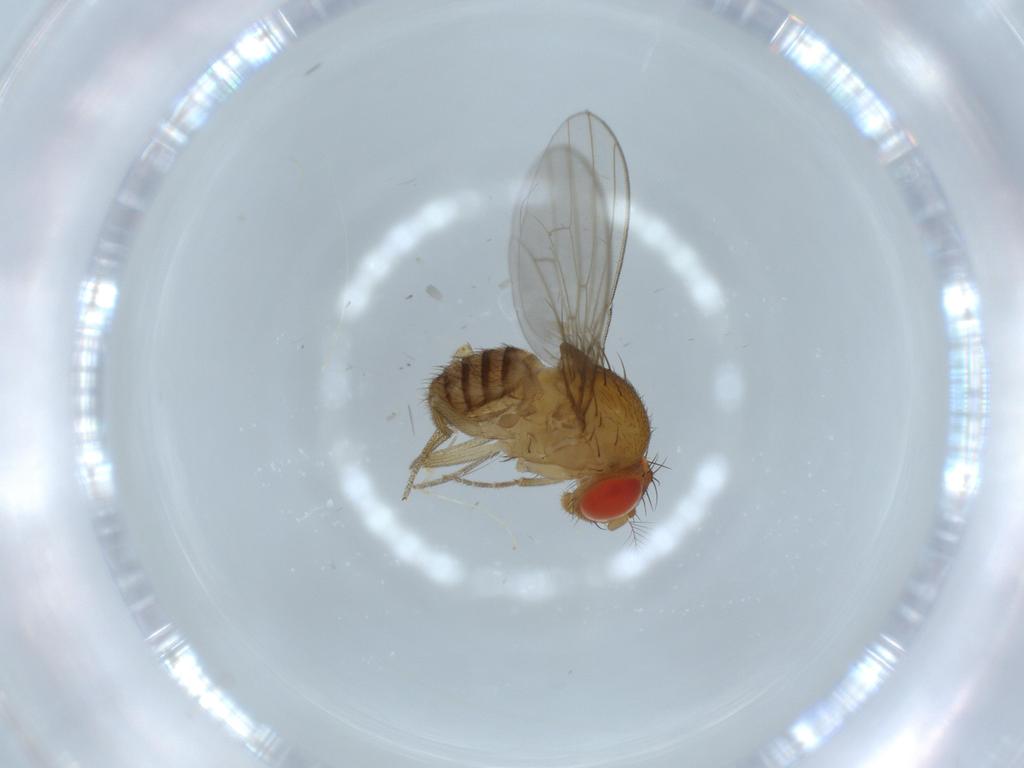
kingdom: Animalia
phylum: Arthropoda
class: Insecta
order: Diptera
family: Drosophilidae
